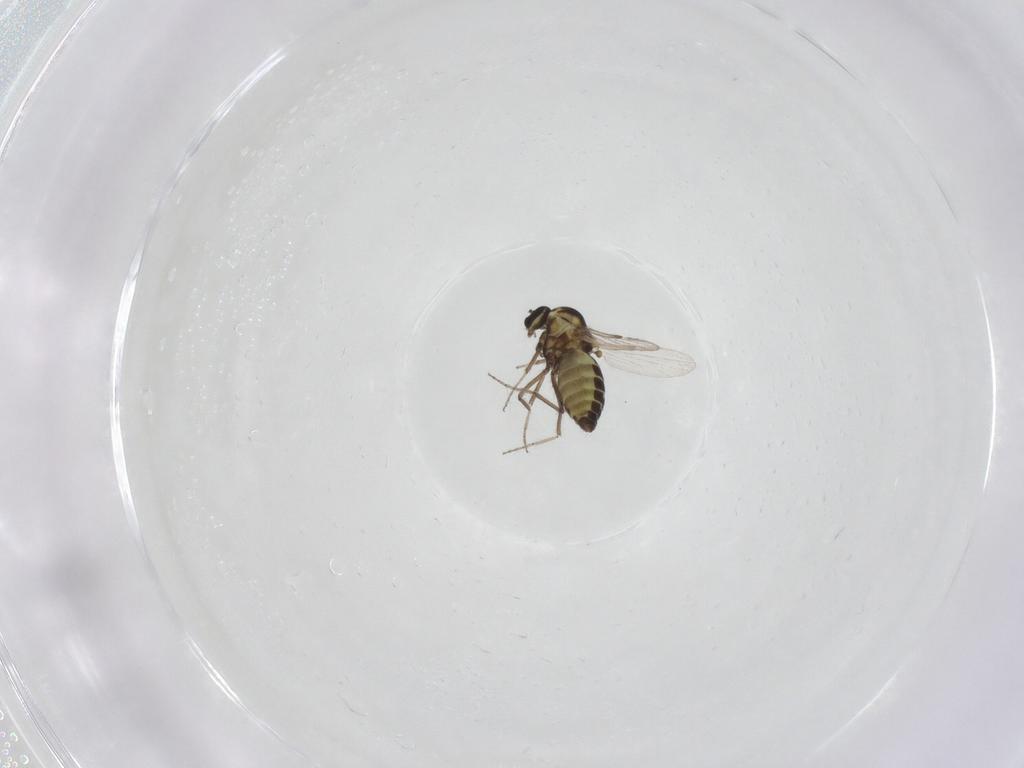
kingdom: Animalia
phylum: Arthropoda
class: Insecta
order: Diptera
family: Ceratopogonidae
